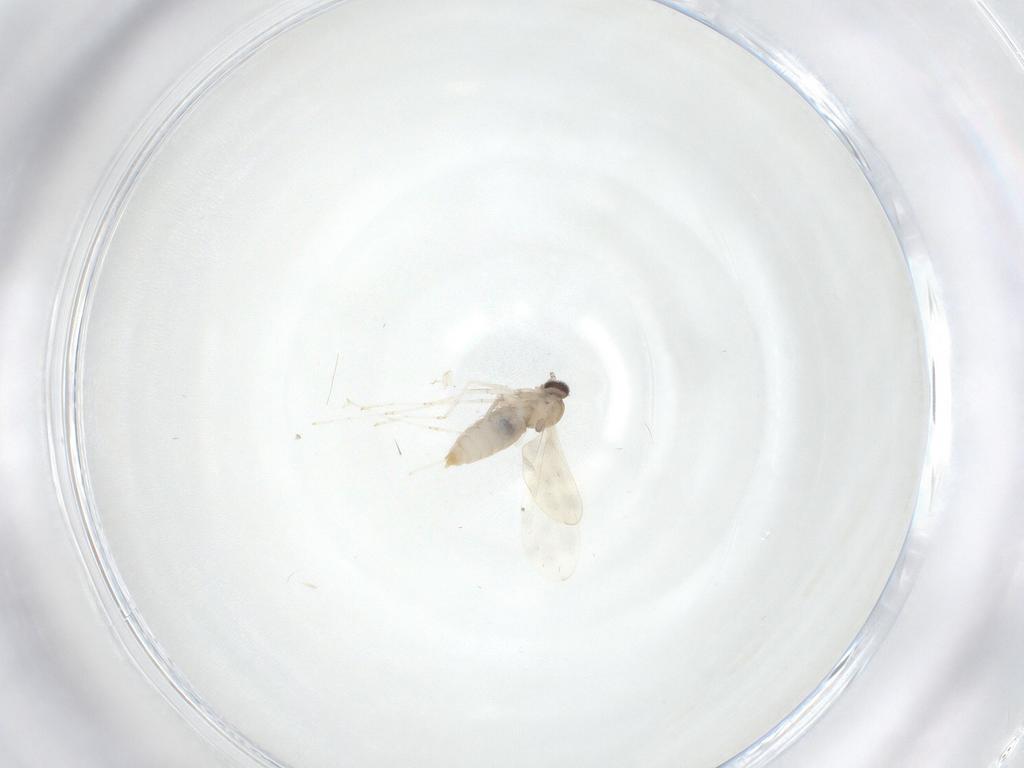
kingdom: Animalia
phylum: Arthropoda
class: Insecta
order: Diptera
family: Cecidomyiidae
